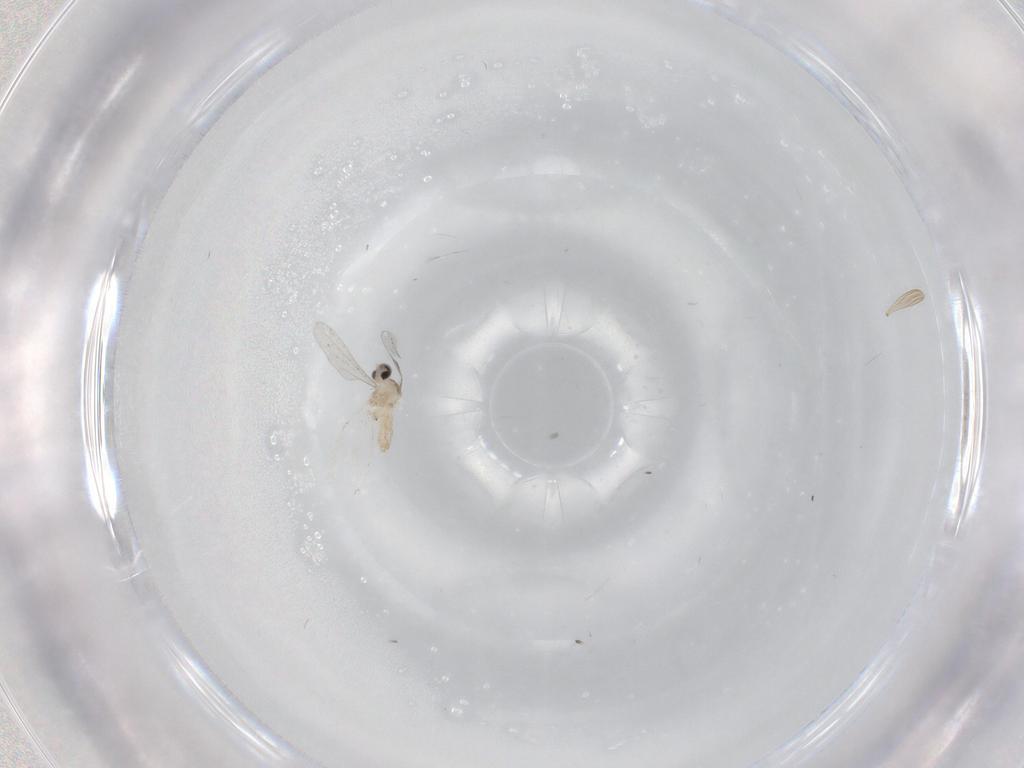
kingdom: Animalia
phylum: Arthropoda
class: Insecta
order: Diptera
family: Cecidomyiidae
